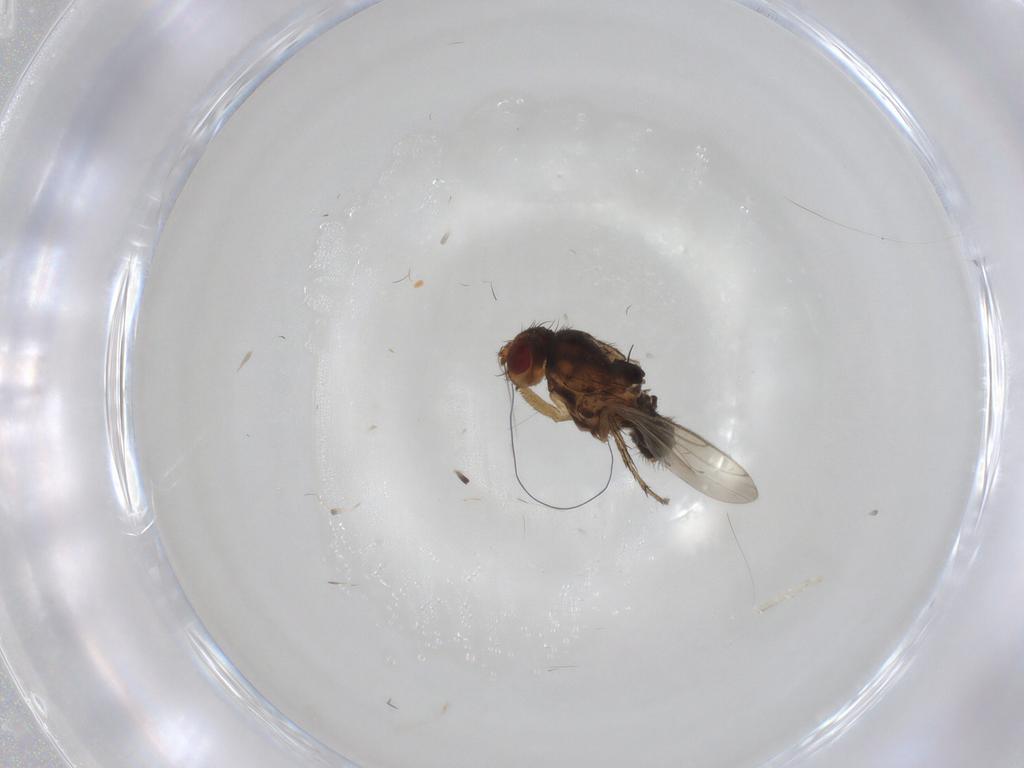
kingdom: Animalia
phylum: Arthropoda
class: Insecta
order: Diptera
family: Sphaeroceridae
